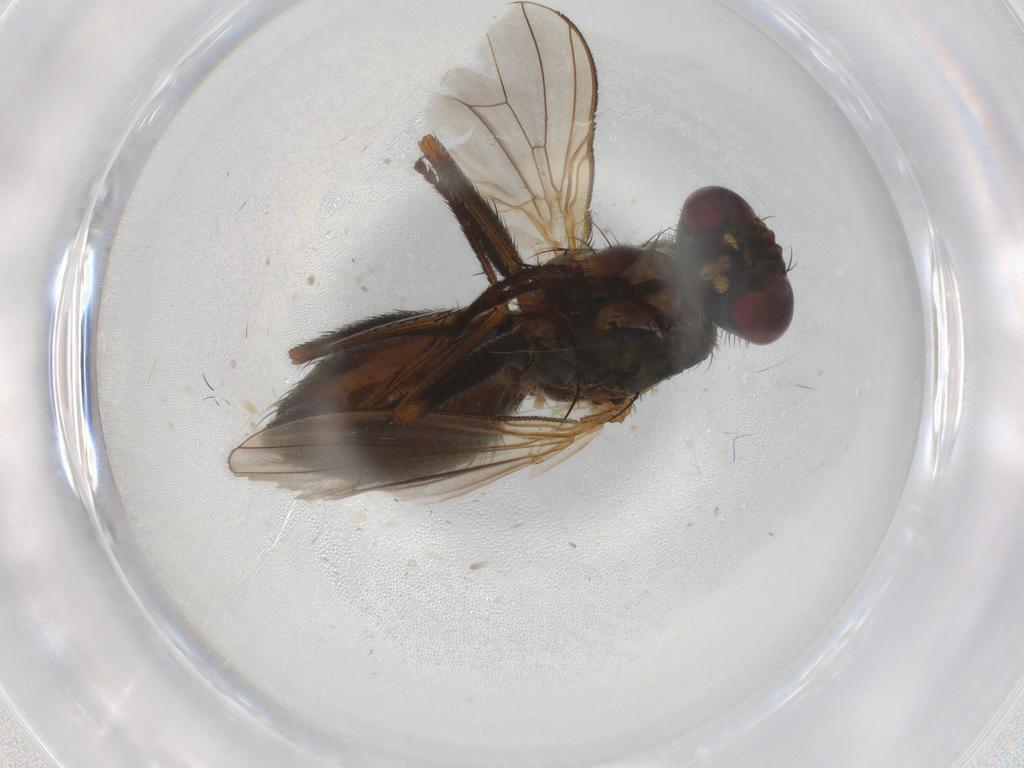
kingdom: Animalia
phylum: Arthropoda
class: Insecta
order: Diptera
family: Muscidae
